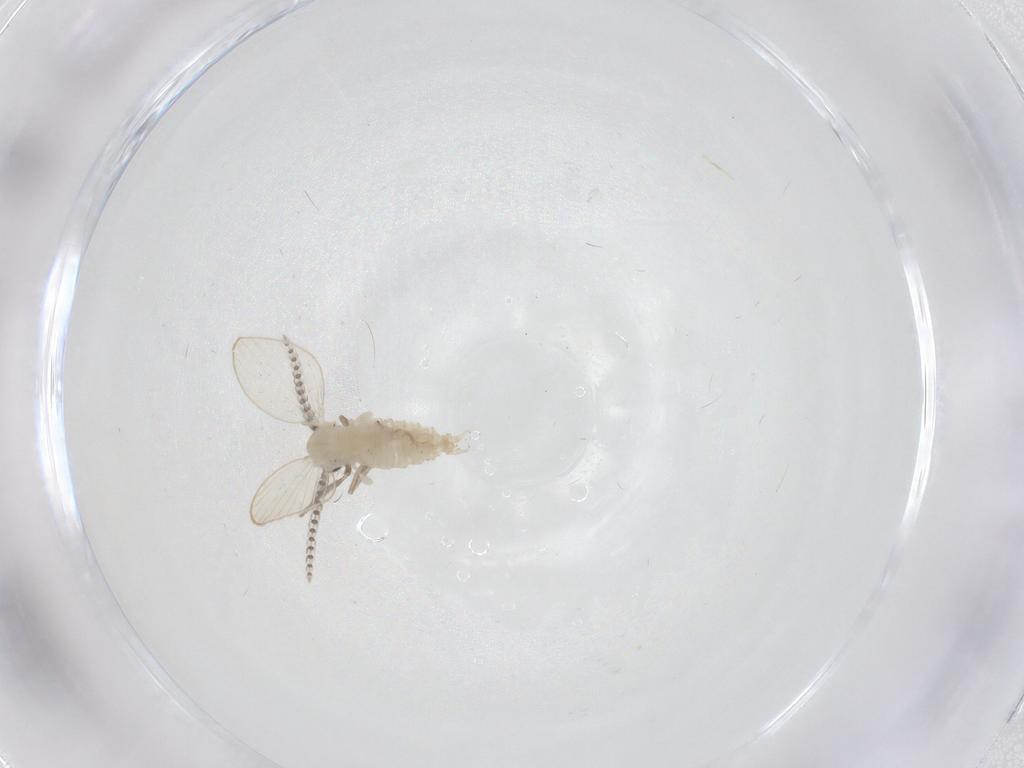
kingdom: Animalia
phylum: Arthropoda
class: Insecta
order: Diptera
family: Psychodidae
